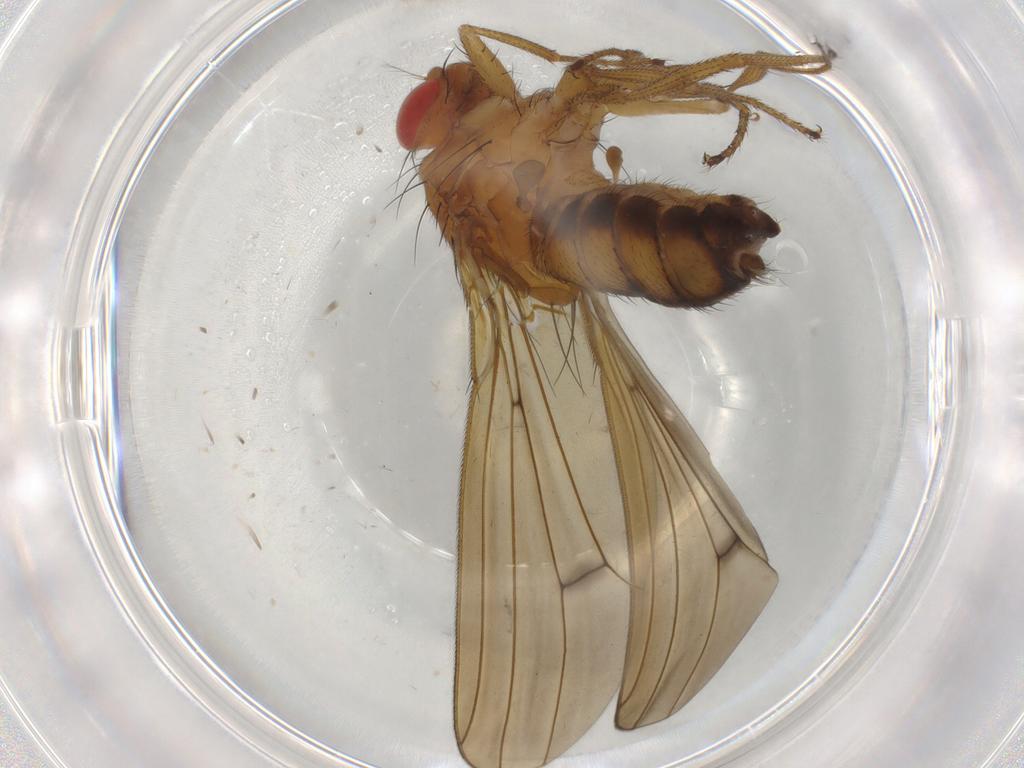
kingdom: Animalia
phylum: Arthropoda
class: Insecta
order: Diptera
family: Drosophilidae
